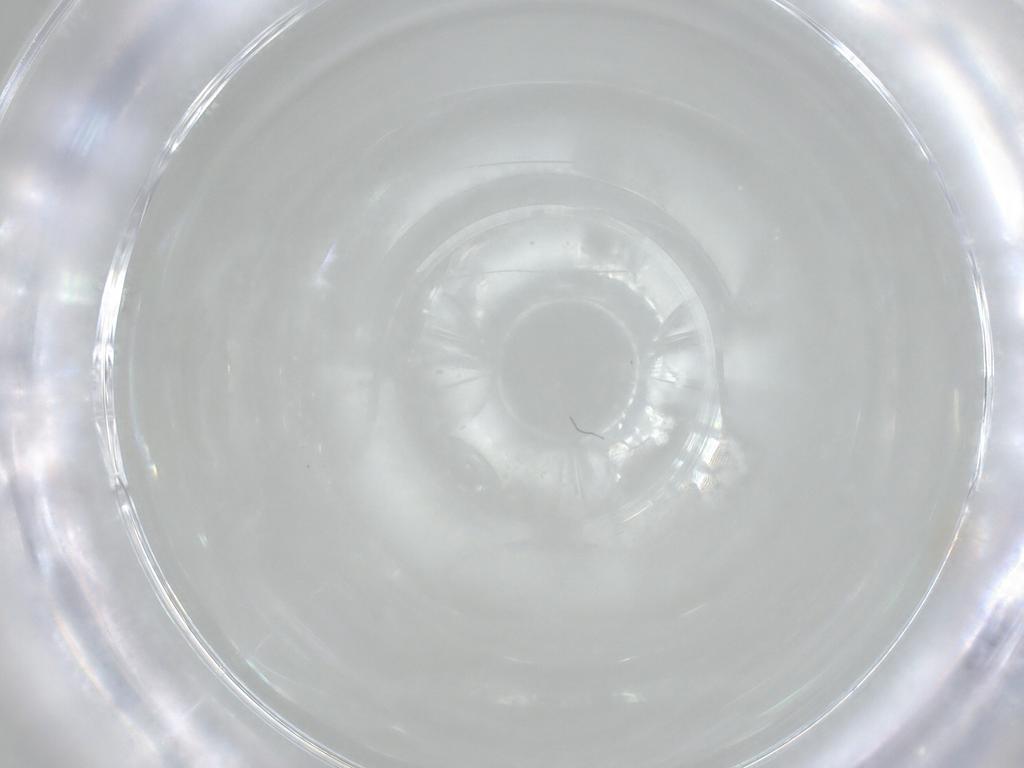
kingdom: Animalia
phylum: Arthropoda
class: Insecta
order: Diptera
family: Chironomidae
